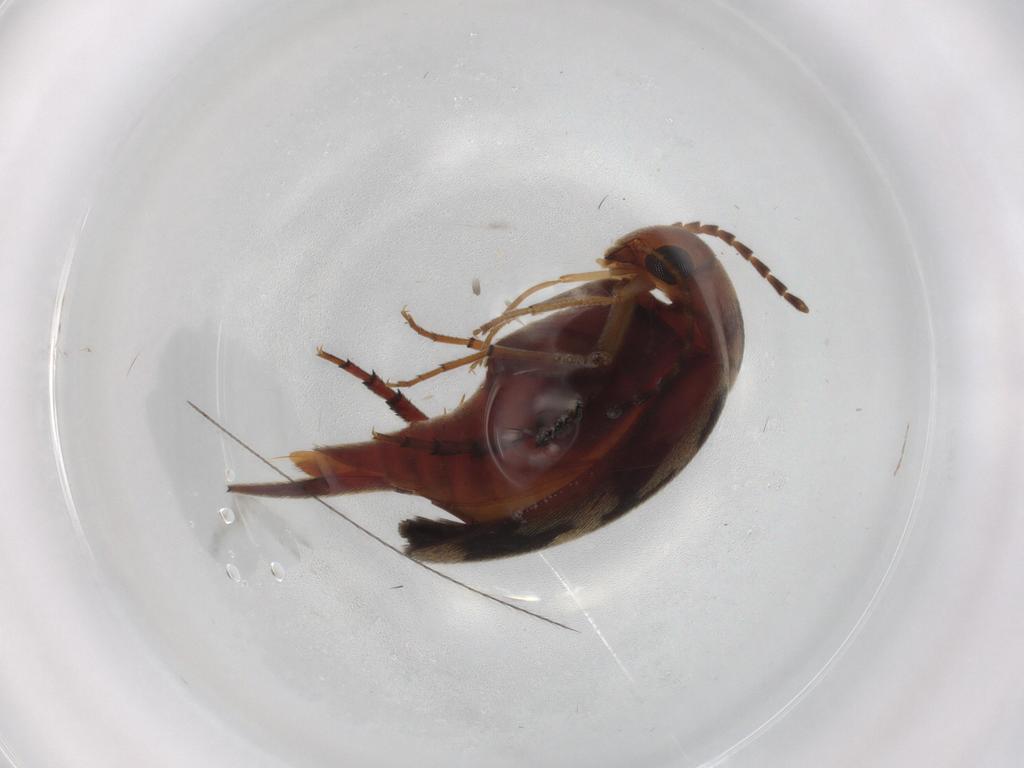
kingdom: Animalia
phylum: Arthropoda
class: Insecta
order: Coleoptera
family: Mordellidae
